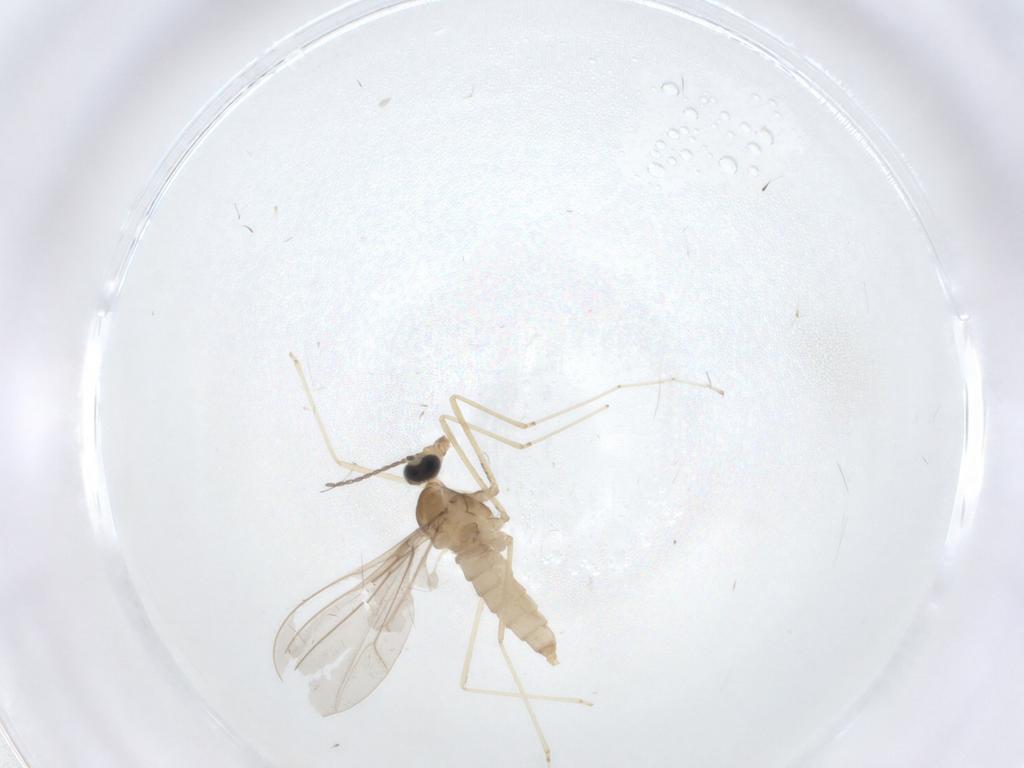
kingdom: Animalia
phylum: Arthropoda
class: Insecta
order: Diptera
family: Cecidomyiidae
